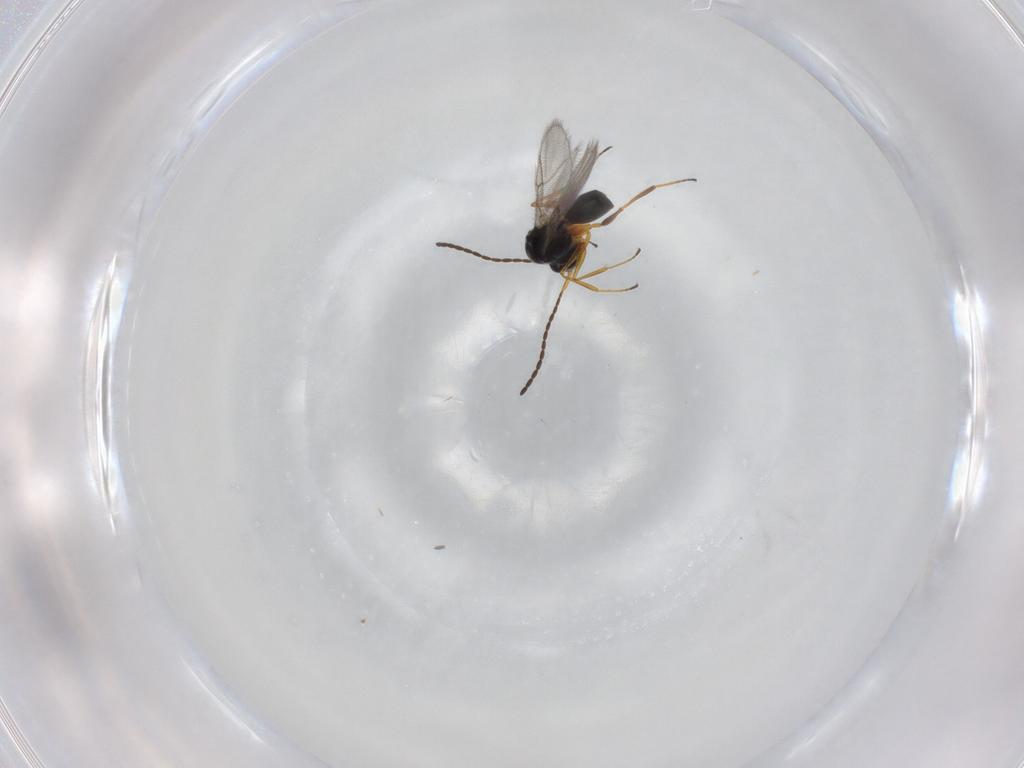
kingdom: Animalia
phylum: Arthropoda
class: Insecta
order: Hymenoptera
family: Figitidae
